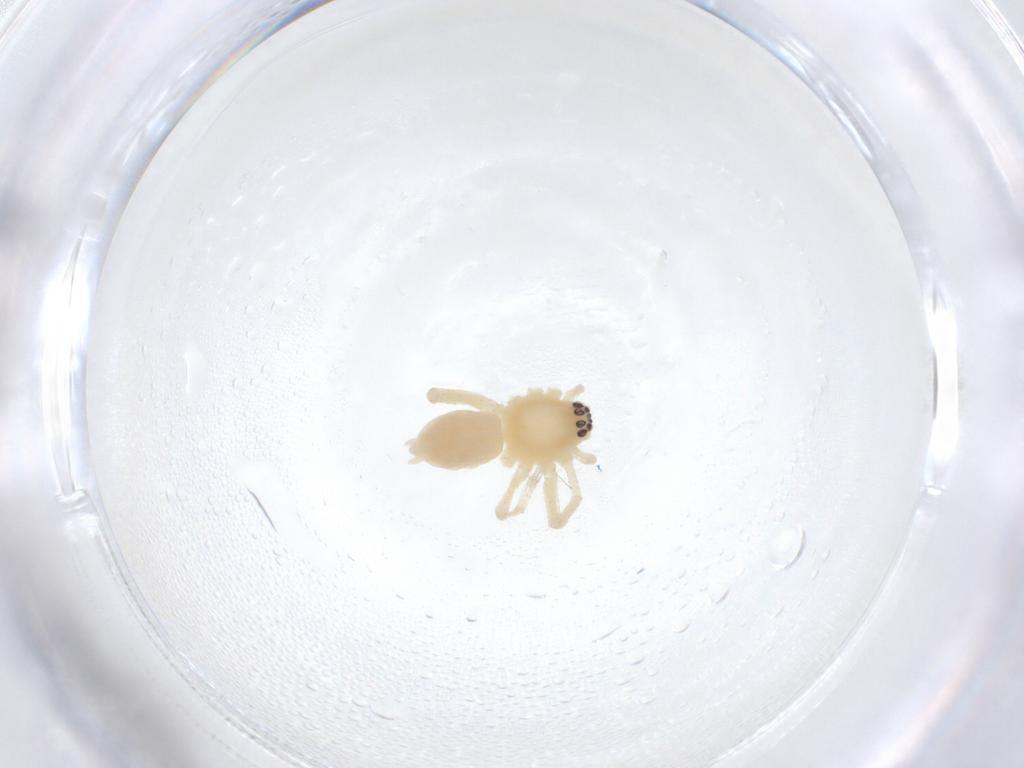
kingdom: Animalia
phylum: Arthropoda
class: Arachnida
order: Araneae
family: Anyphaenidae
